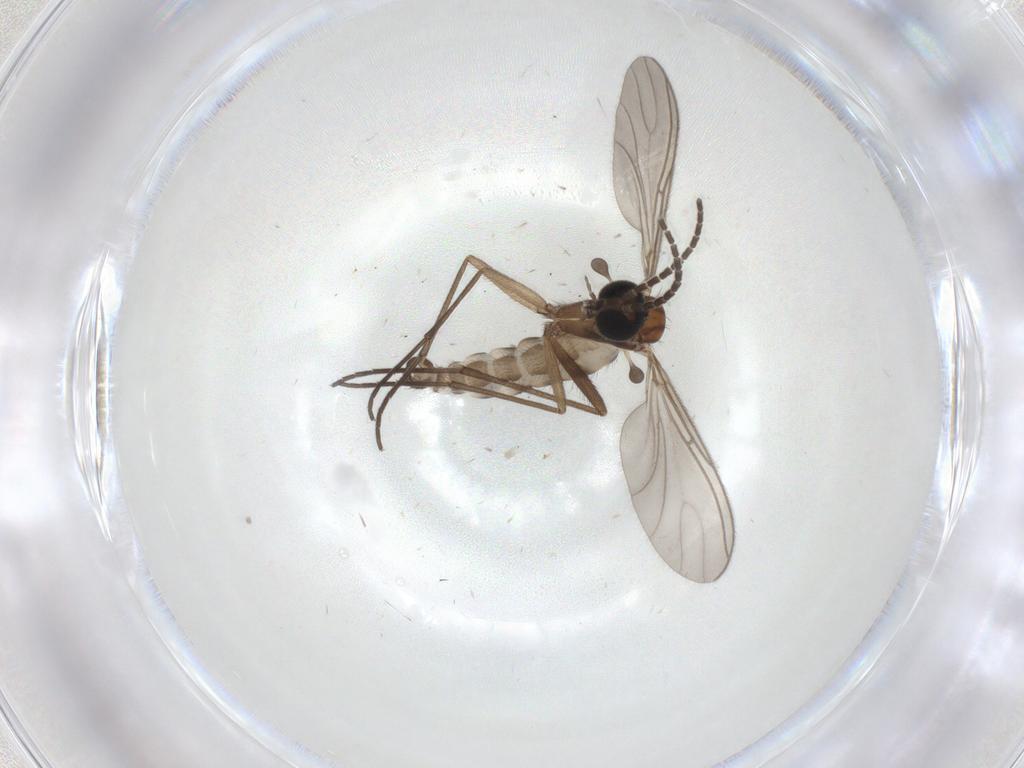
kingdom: Animalia
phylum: Arthropoda
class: Insecta
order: Diptera
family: Sciaridae
